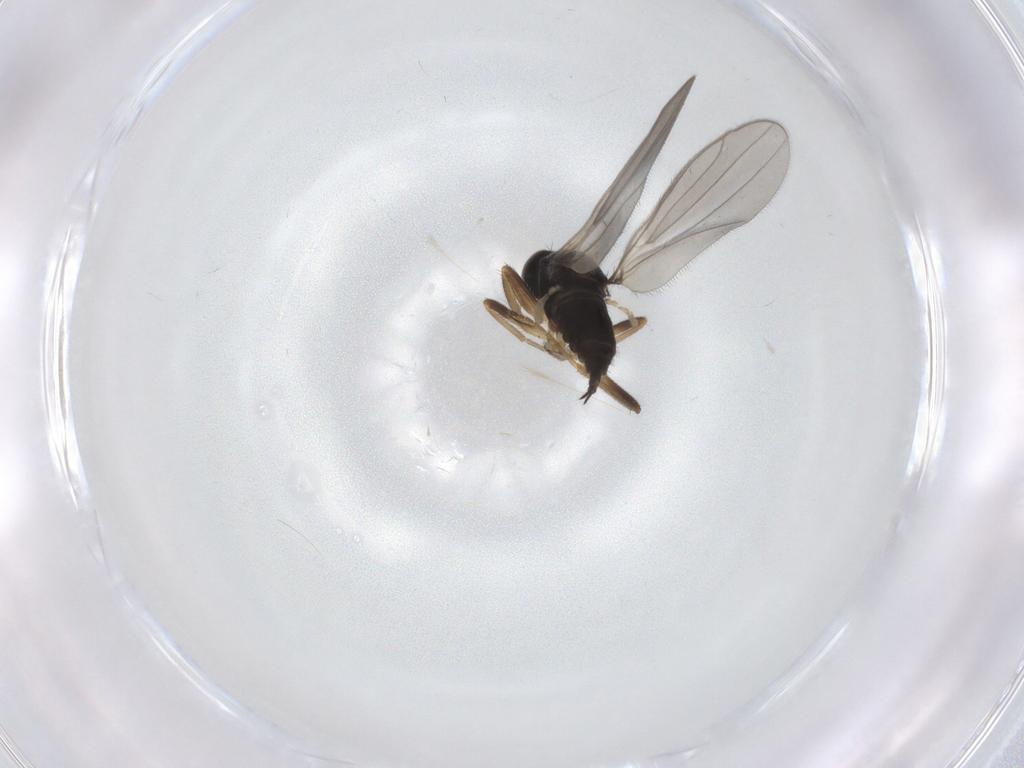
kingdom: Animalia
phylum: Arthropoda
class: Insecta
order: Diptera
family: Hybotidae
